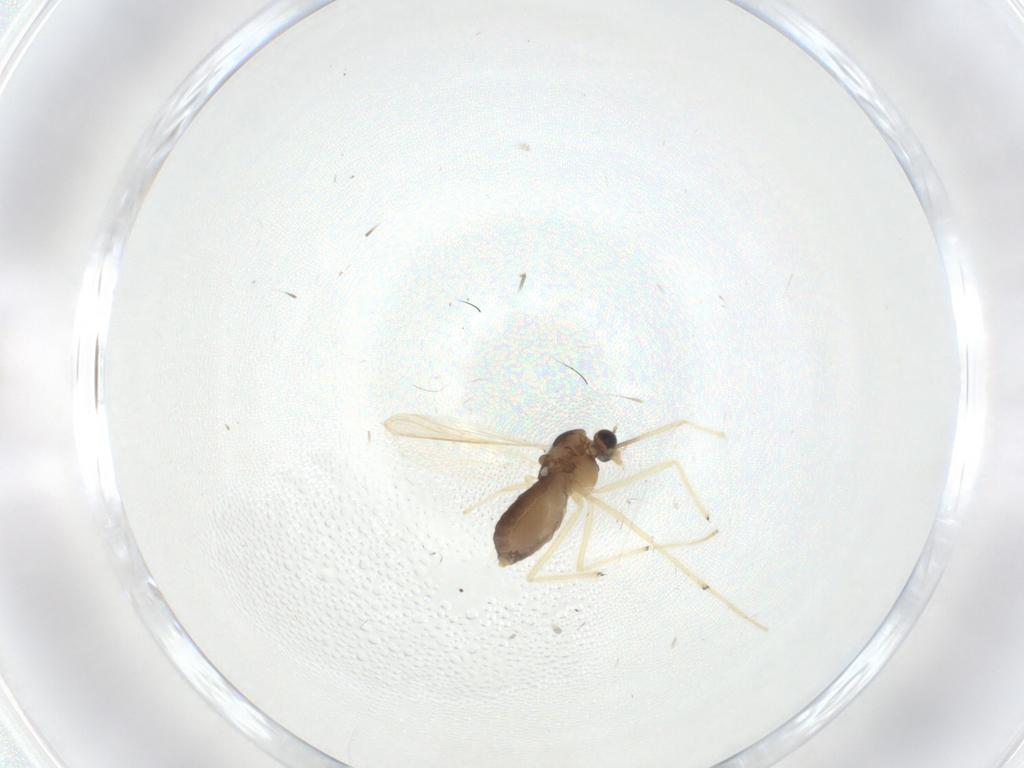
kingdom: Animalia
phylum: Arthropoda
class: Insecta
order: Diptera
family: Chironomidae
